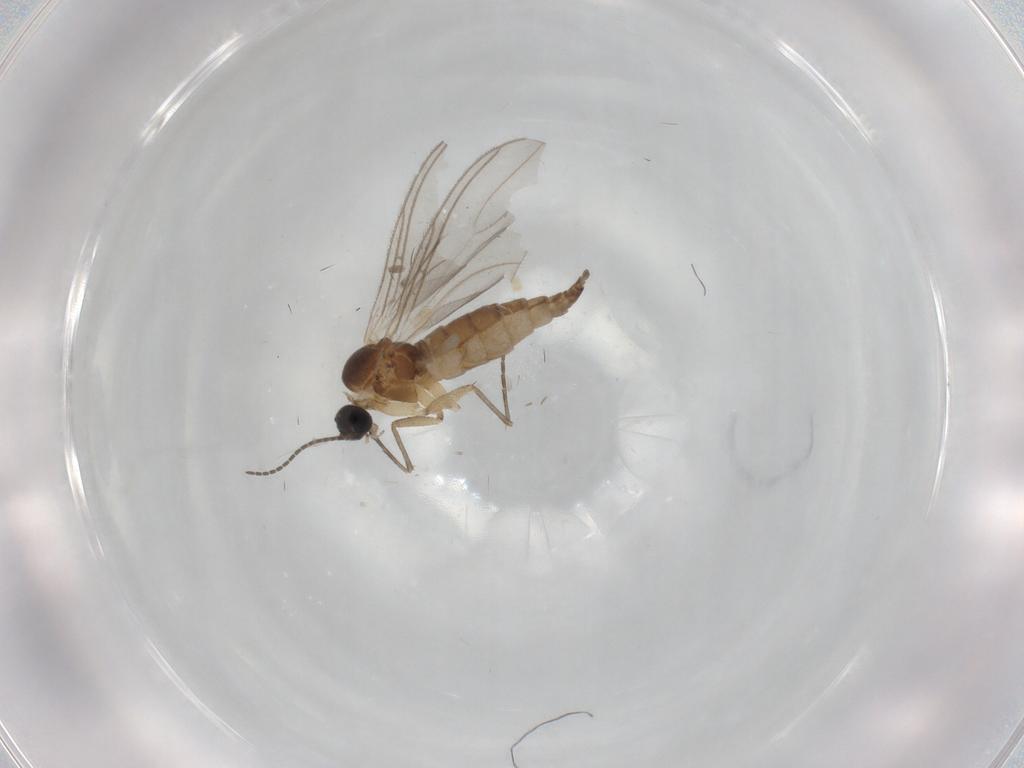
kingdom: Animalia
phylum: Arthropoda
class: Insecta
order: Diptera
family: Sciaridae
